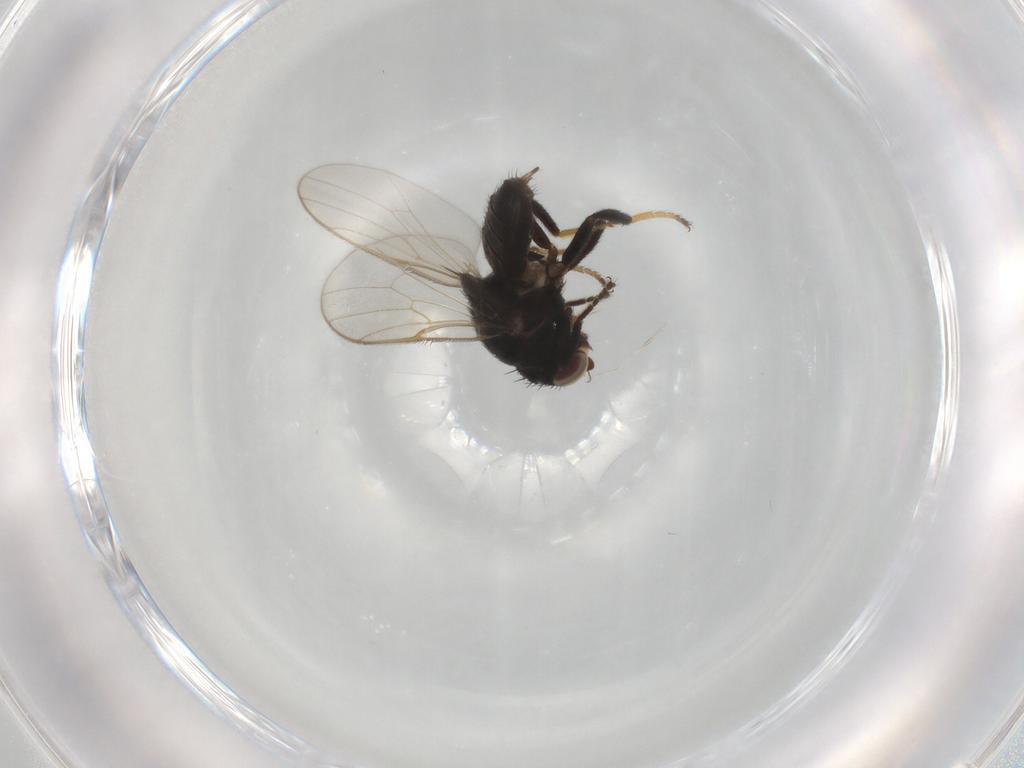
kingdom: Animalia
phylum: Arthropoda
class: Insecta
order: Diptera
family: Chloropidae
